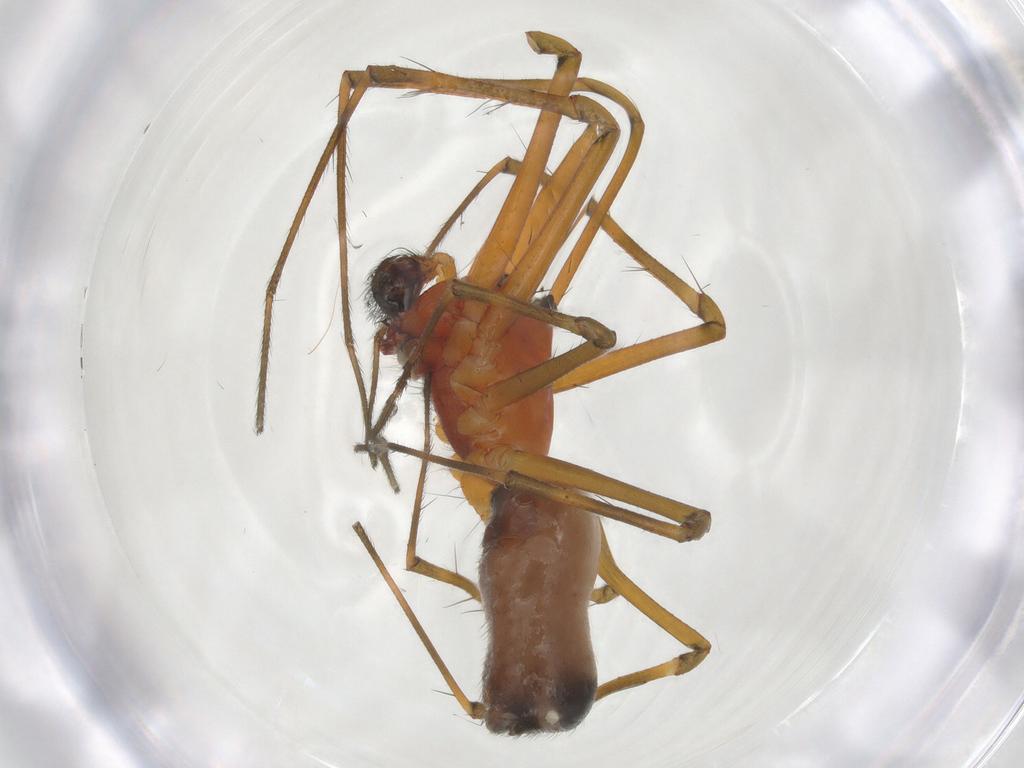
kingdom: Animalia
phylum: Arthropoda
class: Arachnida
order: Araneae
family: Linyphiidae
